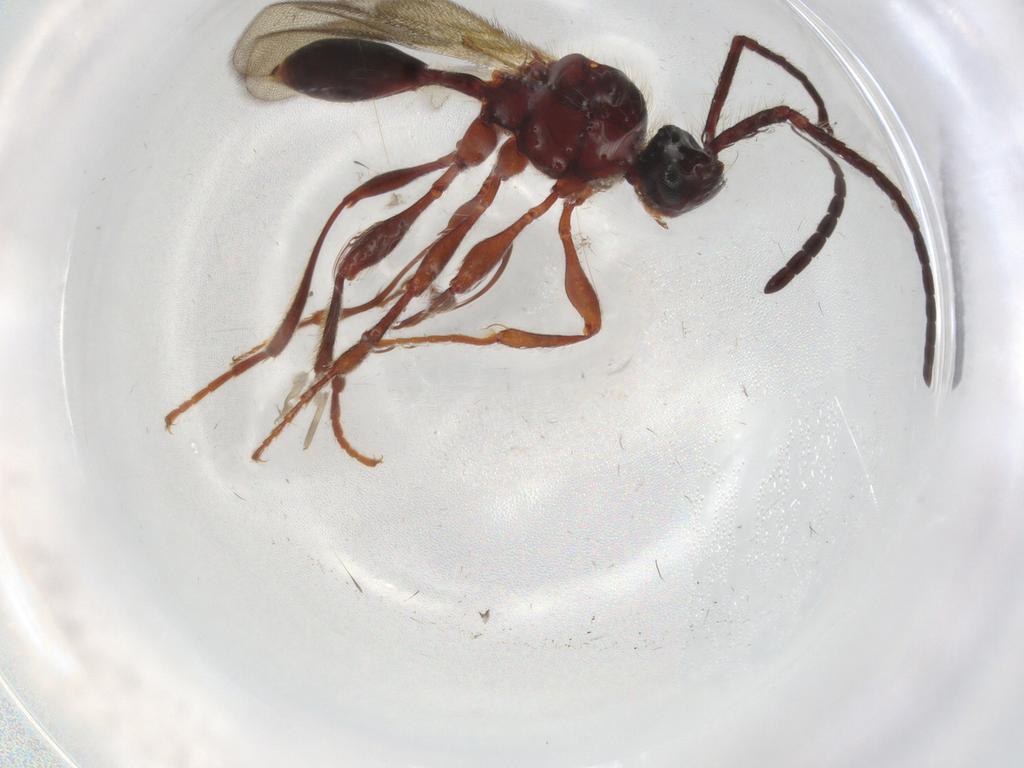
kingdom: Animalia
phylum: Arthropoda
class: Insecta
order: Hymenoptera
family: Diapriidae
